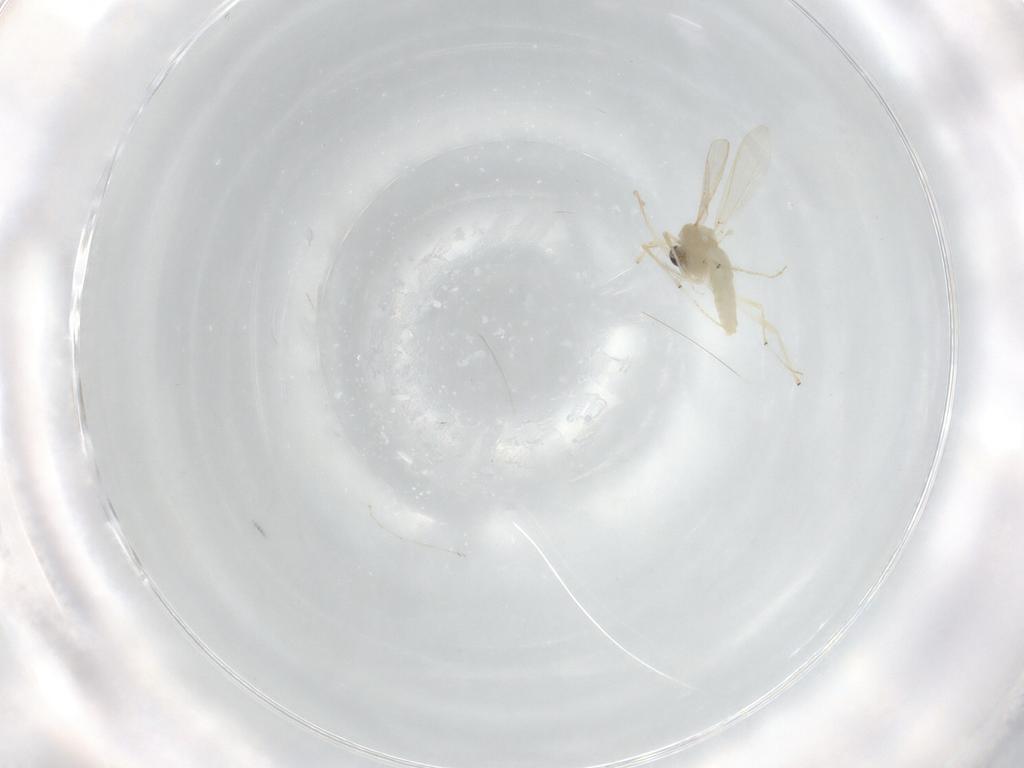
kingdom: Animalia
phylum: Arthropoda
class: Insecta
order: Diptera
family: Chironomidae
